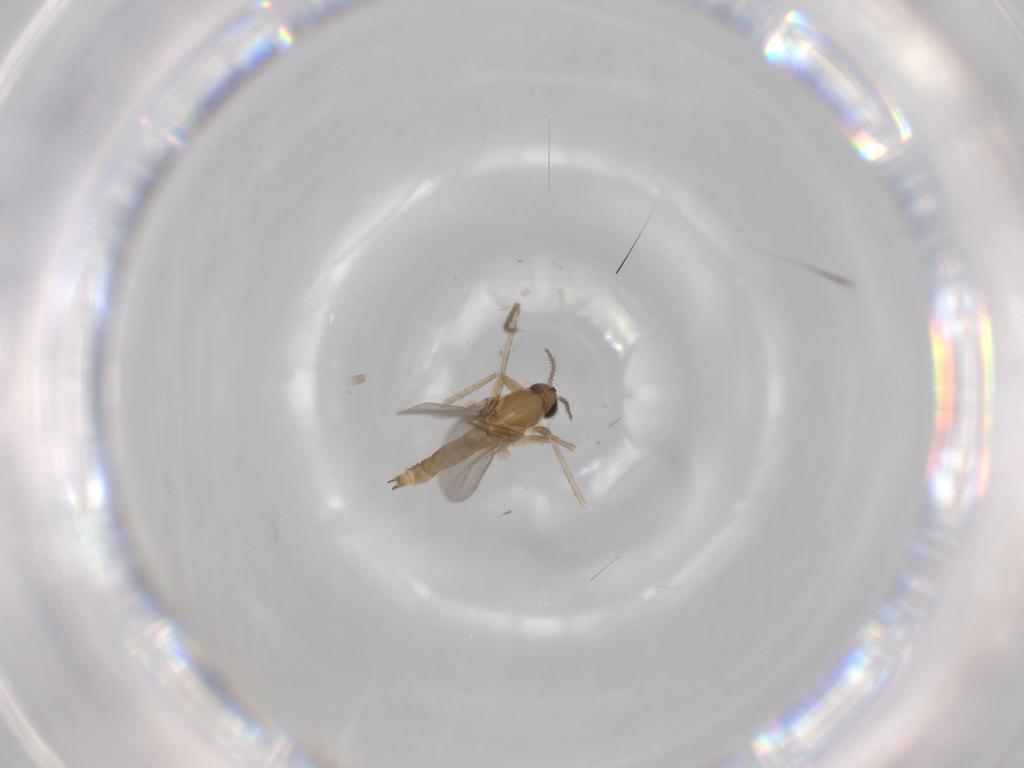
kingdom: Animalia
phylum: Arthropoda
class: Insecta
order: Diptera
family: Cecidomyiidae
